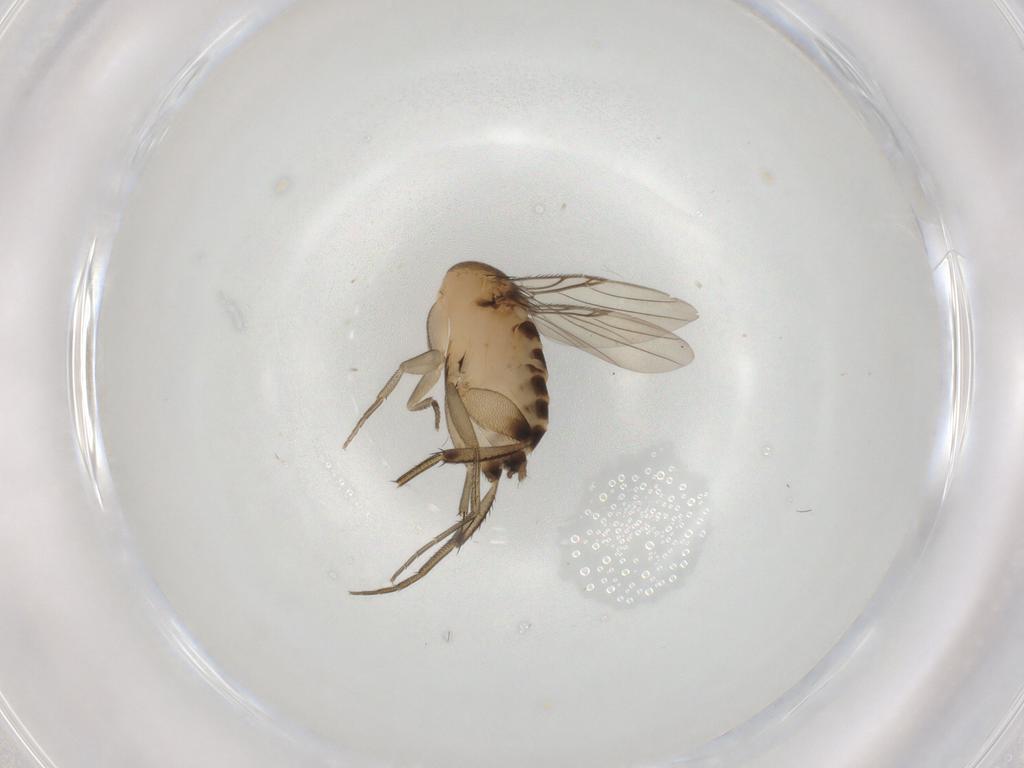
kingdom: Animalia
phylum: Arthropoda
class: Insecta
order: Diptera
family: Phoridae
